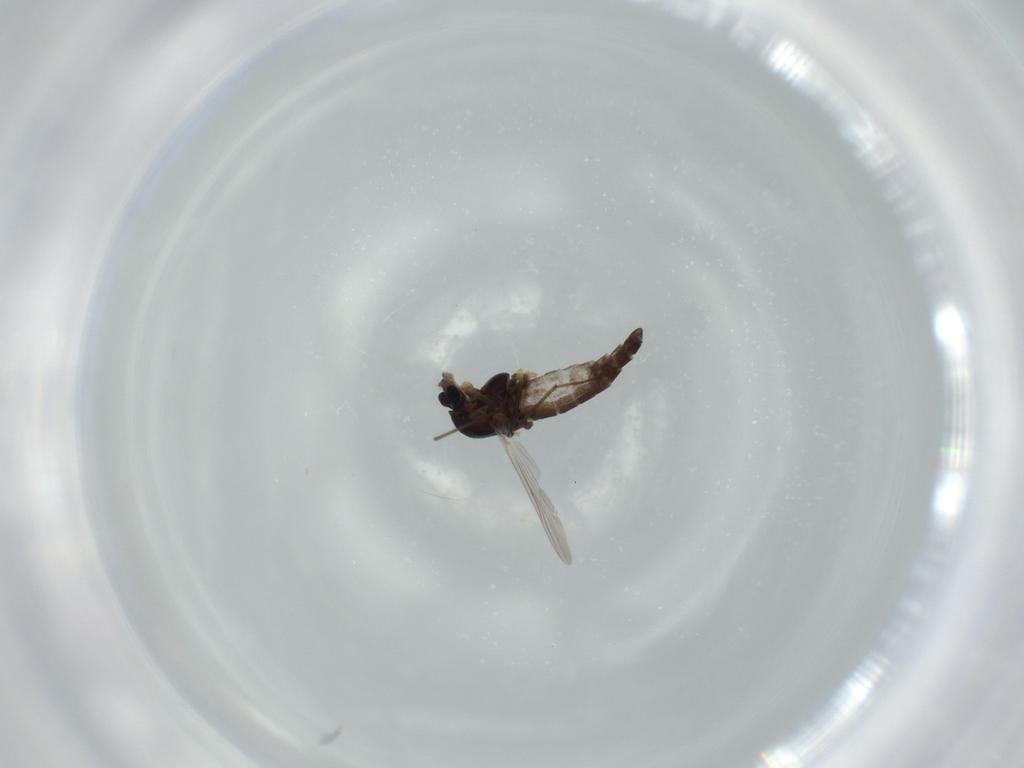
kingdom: Animalia
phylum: Arthropoda
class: Insecta
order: Diptera
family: Chironomidae
